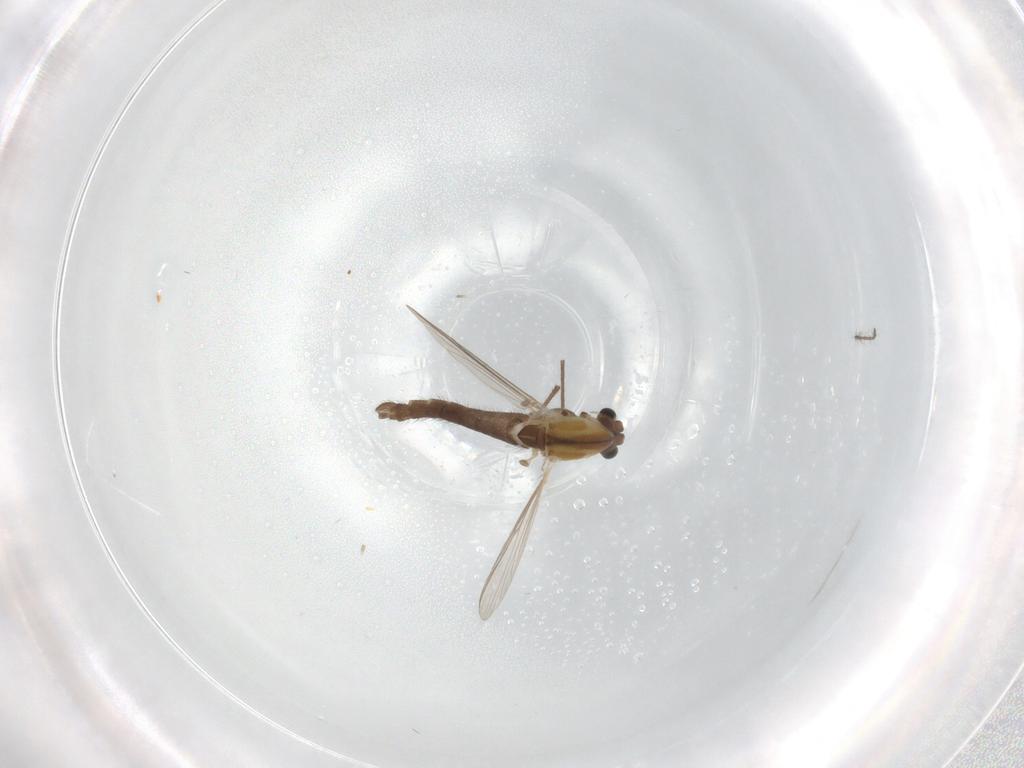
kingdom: Animalia
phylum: Arthropoda
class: Insecta
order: Diptera
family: Chironomidae
